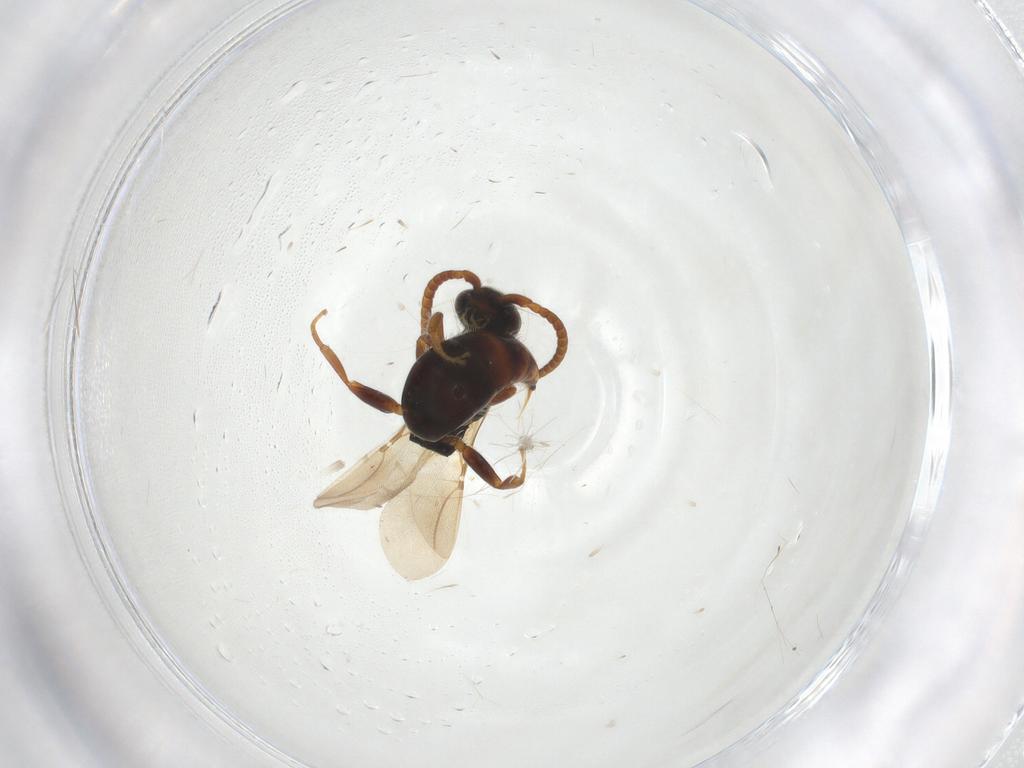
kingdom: Animalia
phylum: Arthropoda
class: Insecta
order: Hymenoptera
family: Bethylidae
